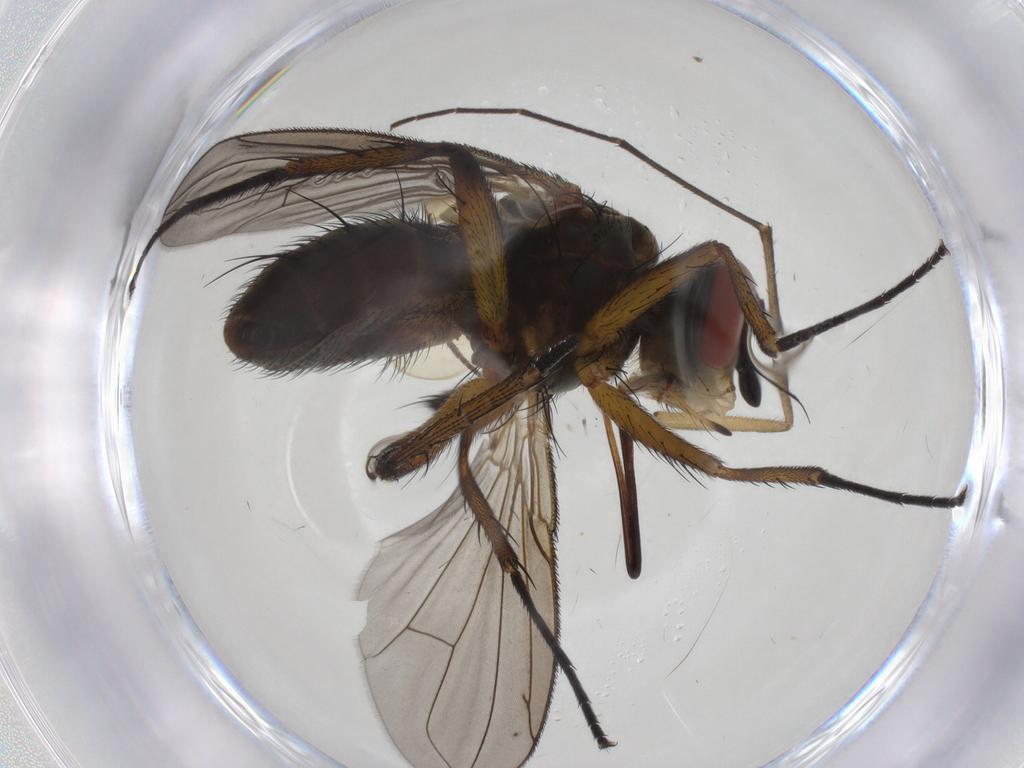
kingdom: Animalia
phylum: Arthropoda
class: Insecta
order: Diptera
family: Tachinidae
